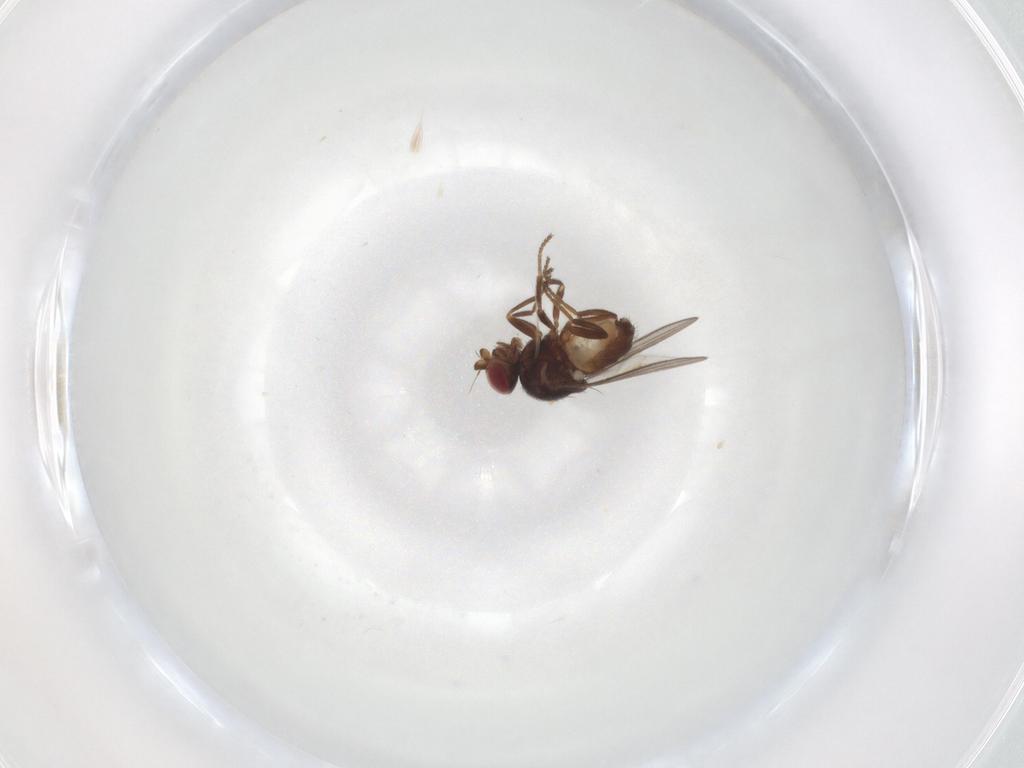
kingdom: Animalia
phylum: Arthropoda
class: Insecta
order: Diptera
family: Chloropidae
